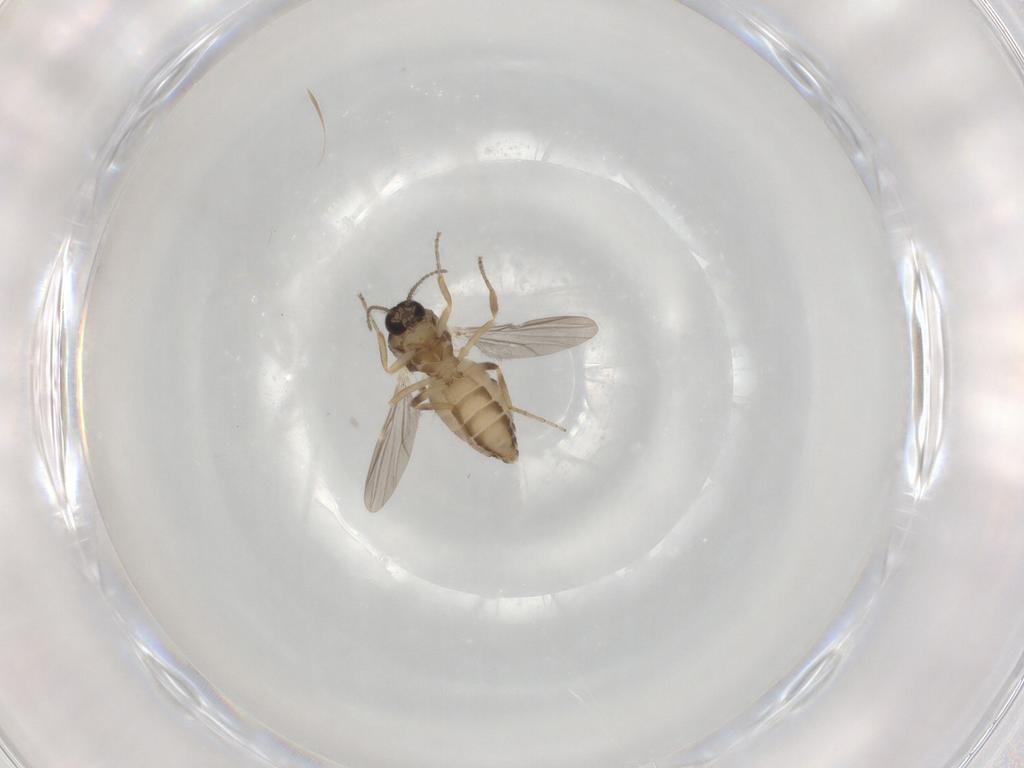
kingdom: Animalia
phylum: Arthropoda
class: Insecta
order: Diptera
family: Ceratopogonidae
